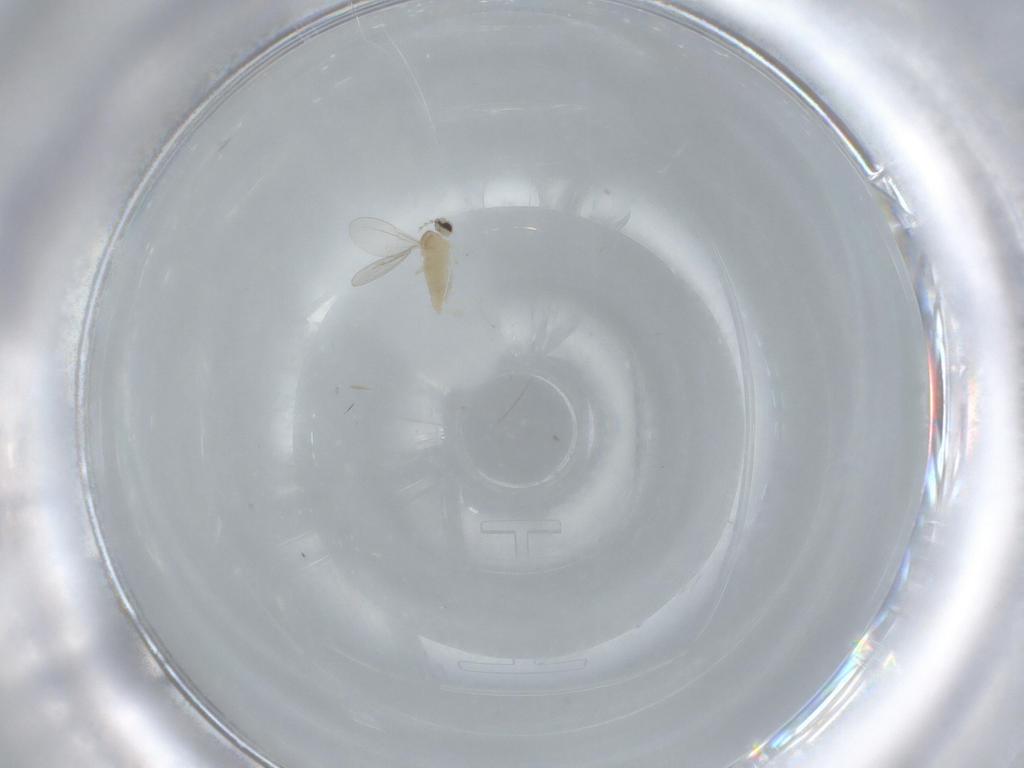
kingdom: Animalia
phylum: Arthropoda
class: Insecta
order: Diptera
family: Cecidomyiidae
